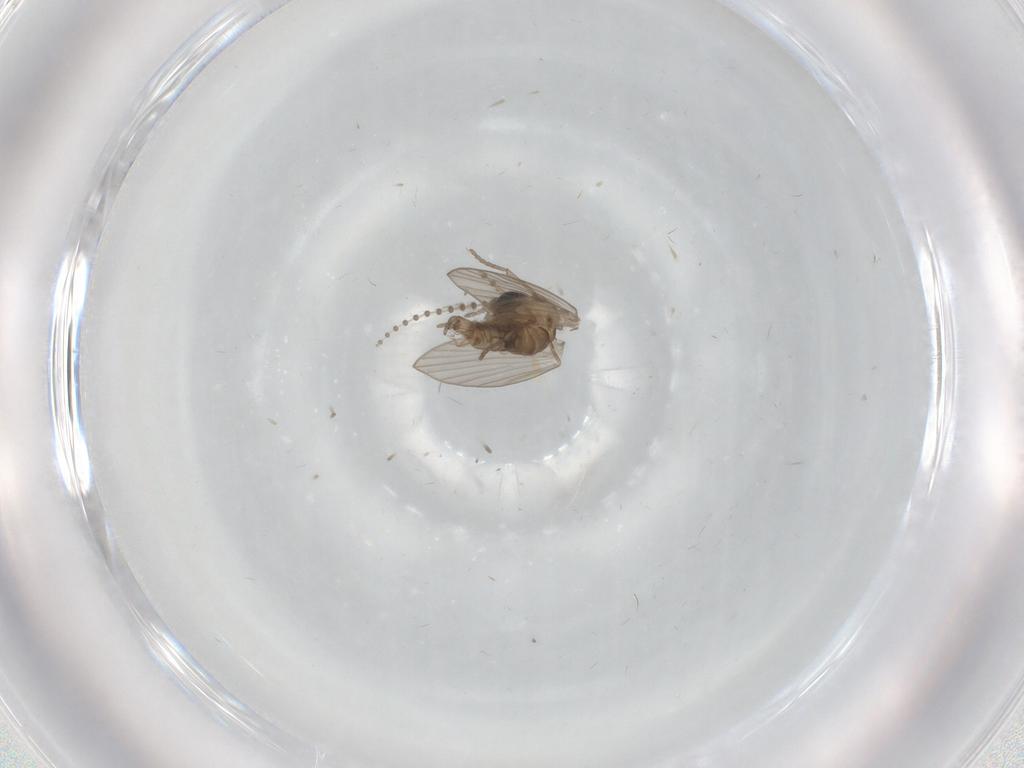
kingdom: Animalia
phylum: Arthropoda
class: Insecta
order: Diptera
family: Psychodidae
